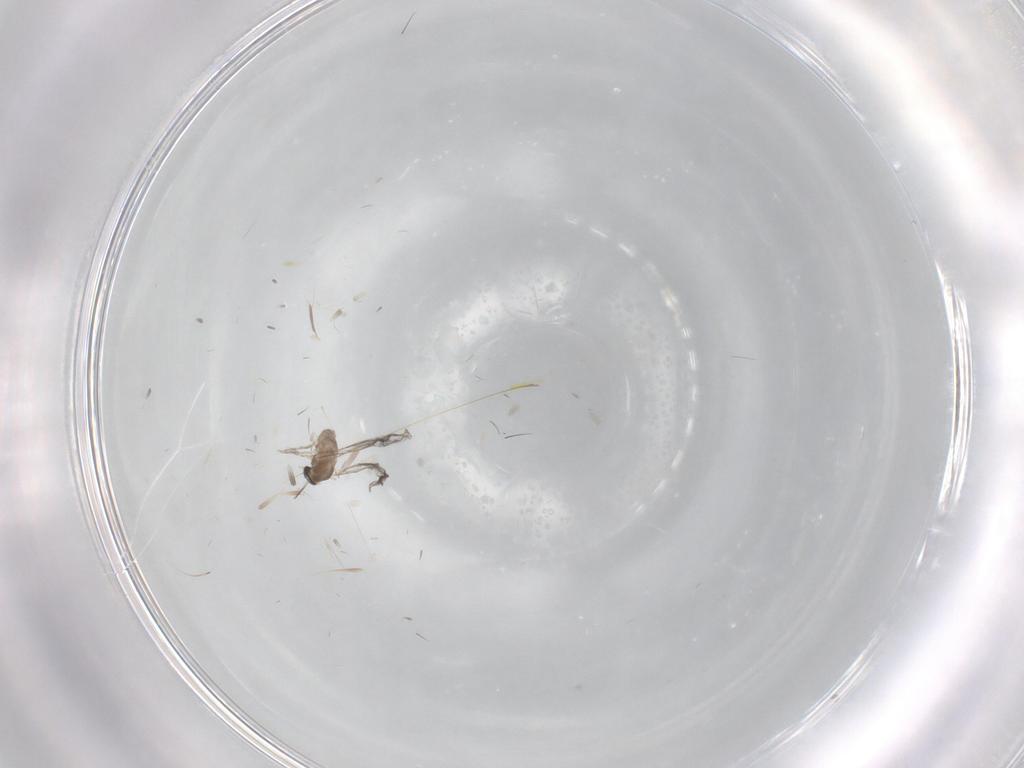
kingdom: Animalia
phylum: Arthropoda
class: Insecta
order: Diptera
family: Cecidomyiidae
